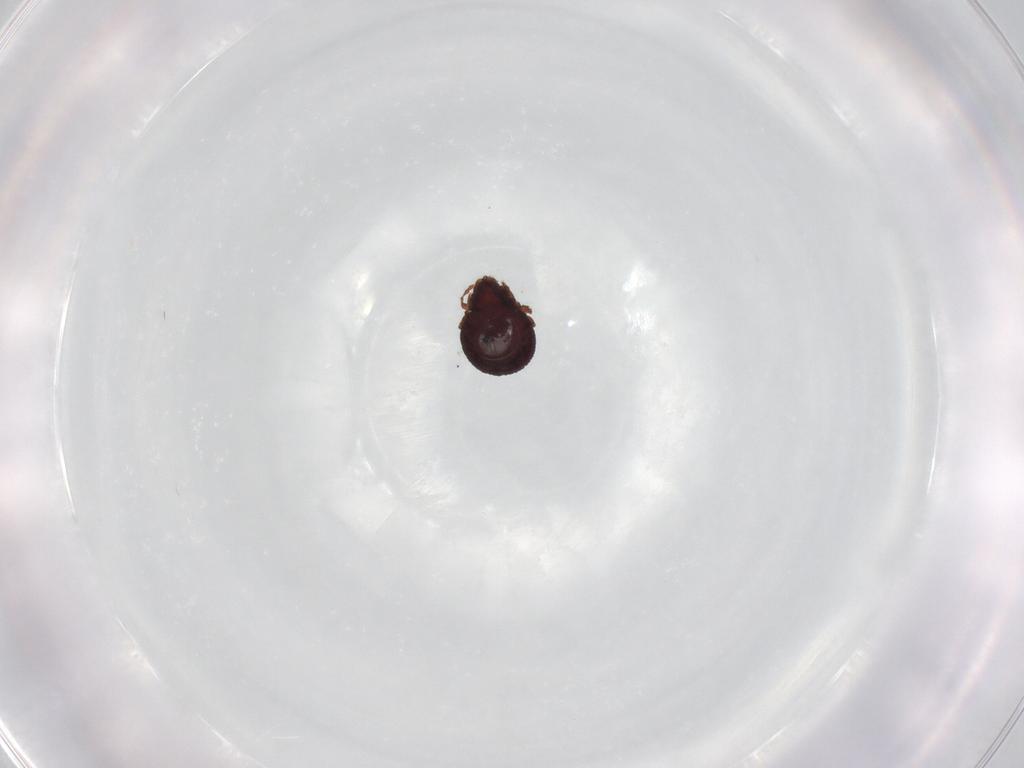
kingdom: Animalia
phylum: Arthropoda
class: Arachnida
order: Sarcoptiformes
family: Cepheusidae
